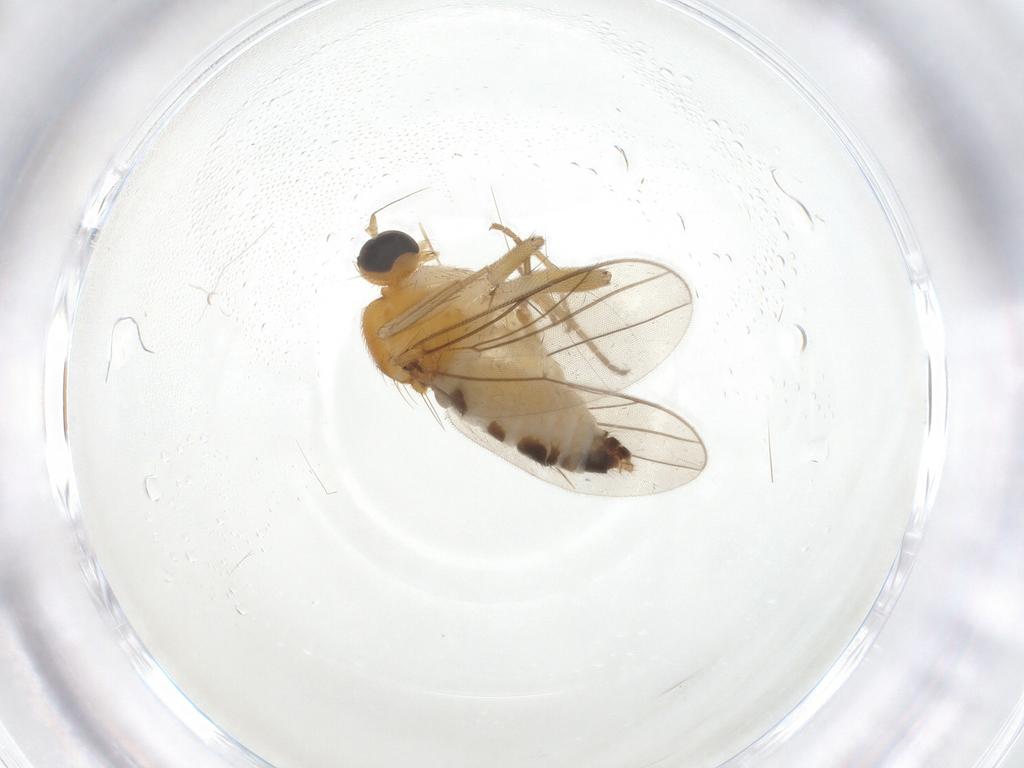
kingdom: Animalia
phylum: Arthropoda
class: Insecta
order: Diptera
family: Hybotidae
